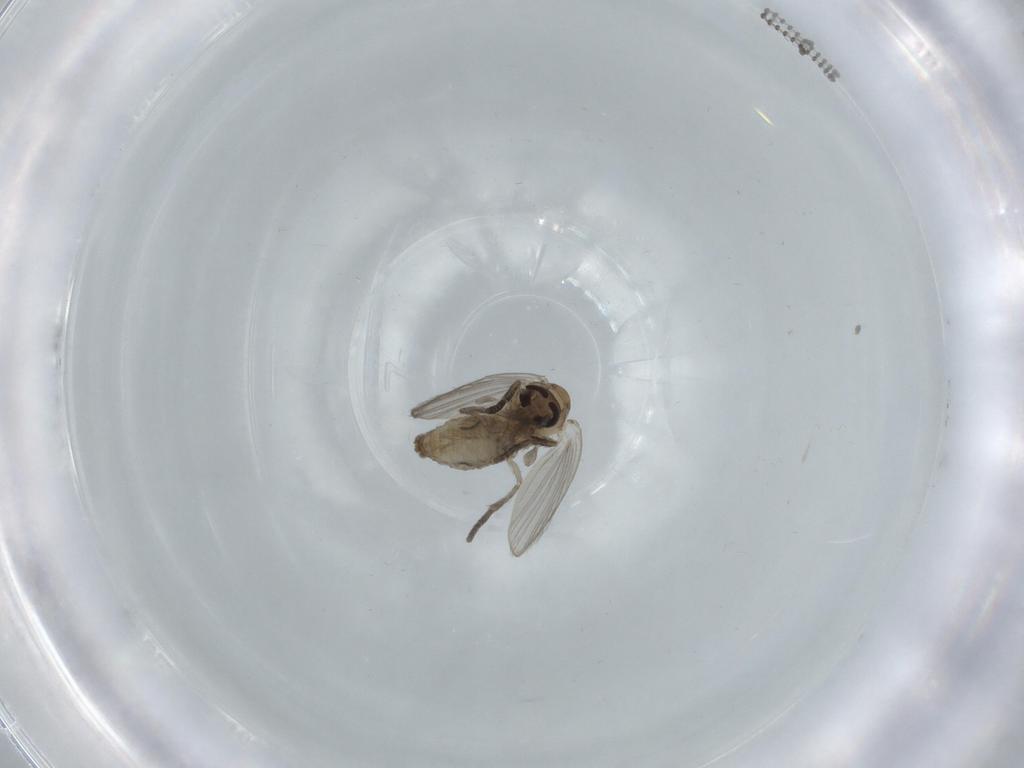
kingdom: Animalia
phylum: Arthropoda
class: Insecta
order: Diptera
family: Psychodidae
